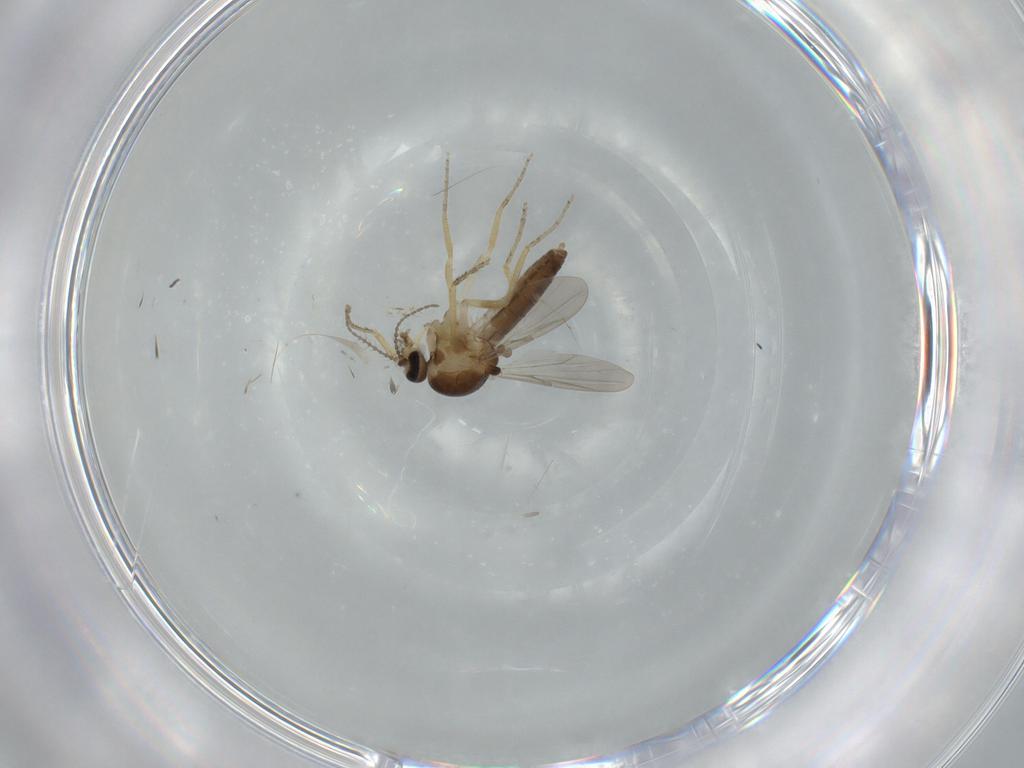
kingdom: Animalia
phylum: Arthropoda
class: Insecta
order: Diptera
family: Ceratopogonidae
